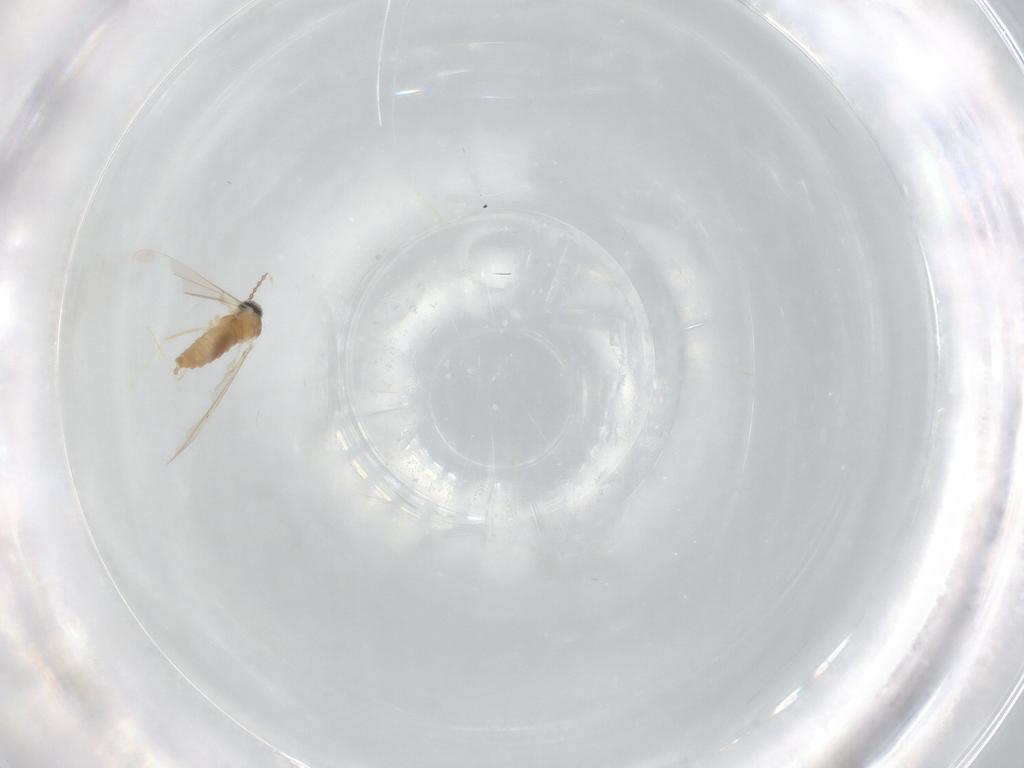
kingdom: Animalia
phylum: Arthropoda
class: Insecta
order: Diptera
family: Cecidomyiidae
